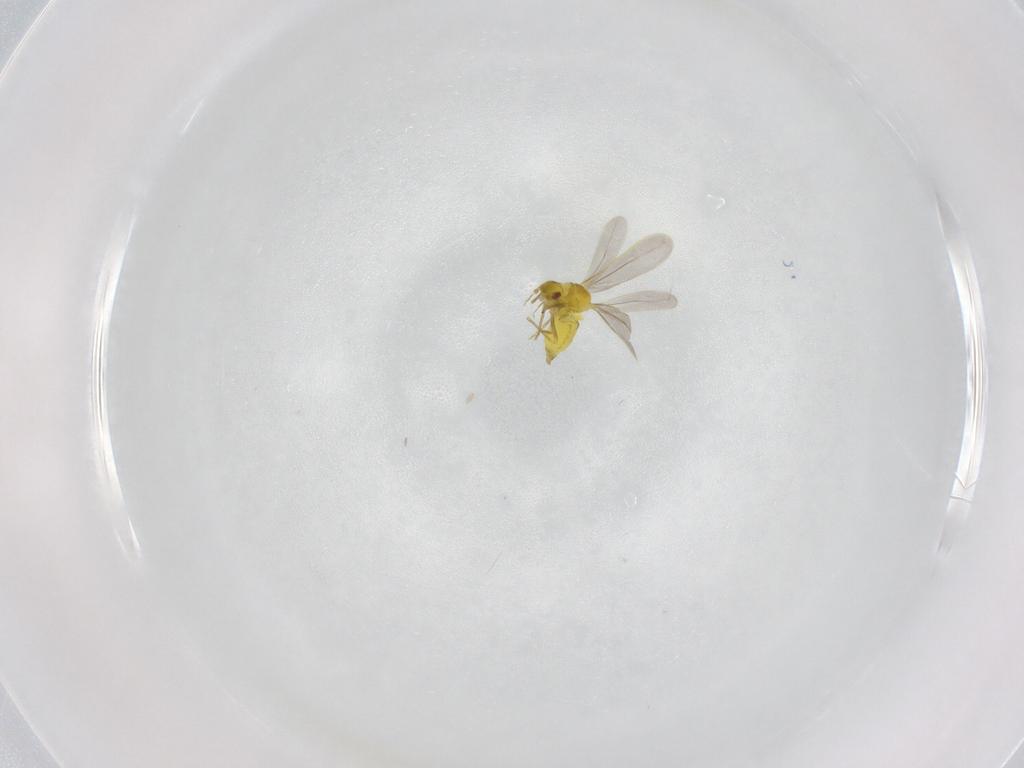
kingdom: Animalia
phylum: Arthropoda
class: Insecta
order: Hemiptera
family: Aleyrodidae
